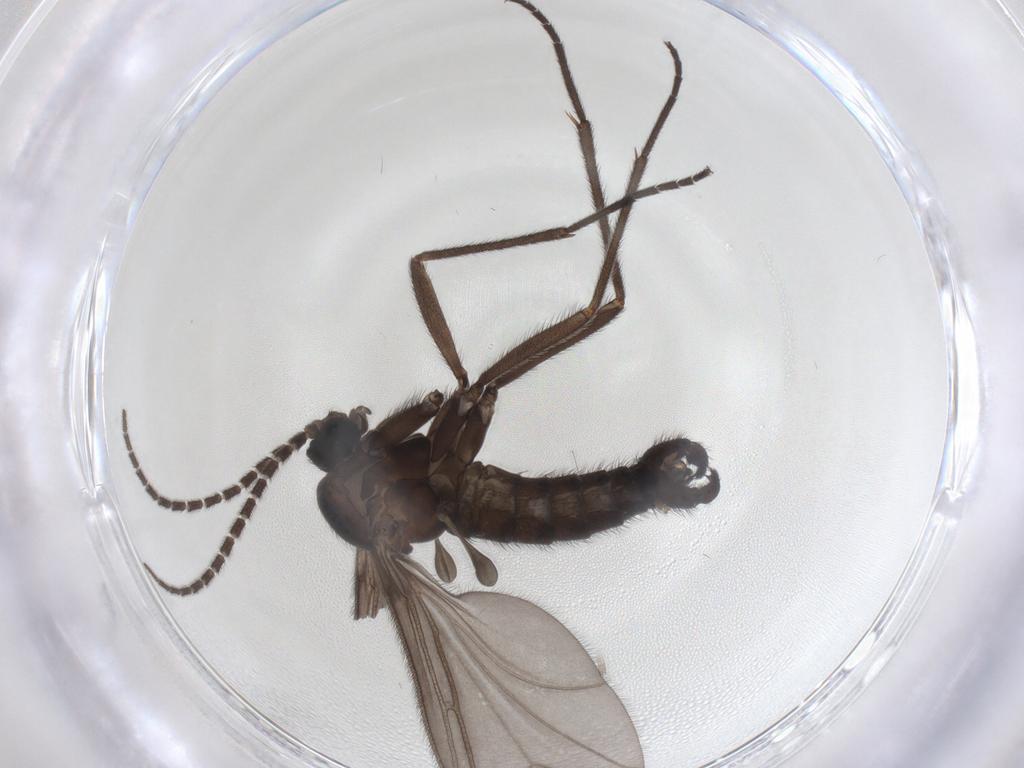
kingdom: Animalia
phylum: Arthropoda
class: Insecta
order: Diptera
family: Sciaridae
